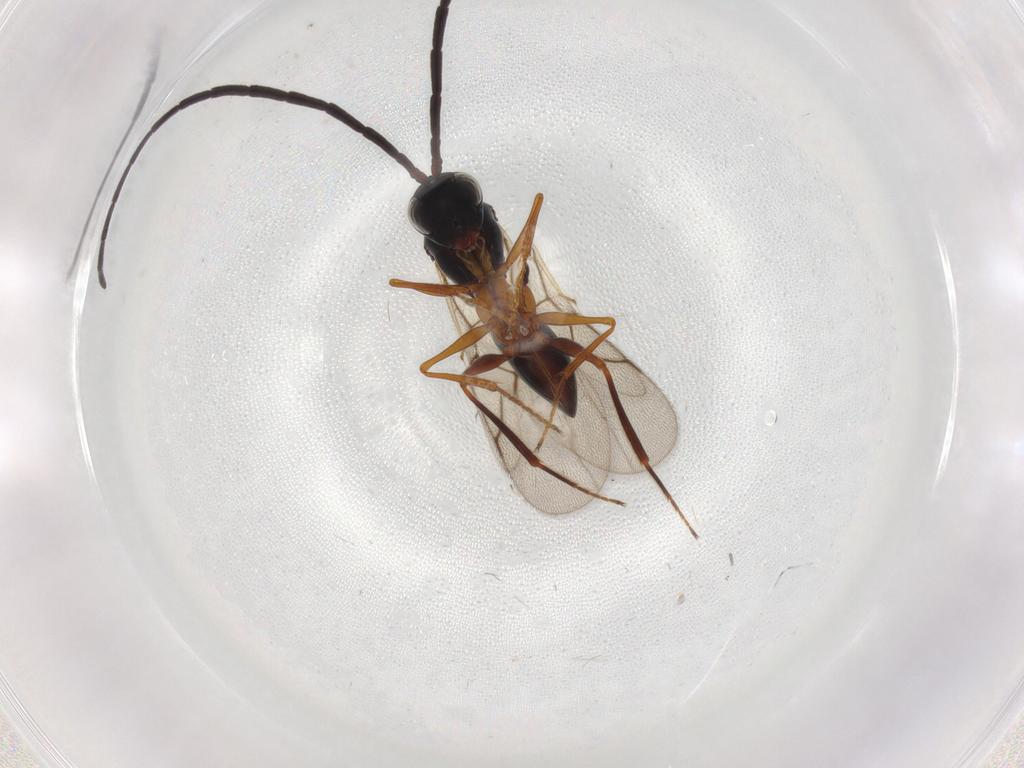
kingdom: Animalia
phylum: Arthropoda
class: Insecta
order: Hymenoptera
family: Figitidae
